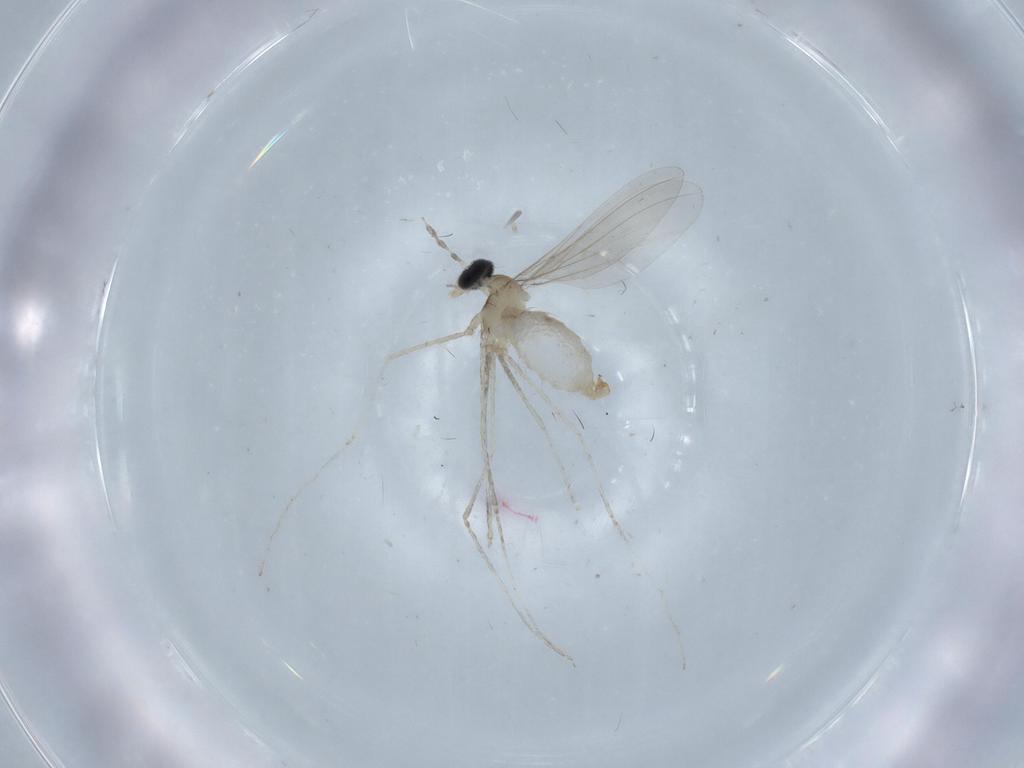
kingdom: Animalia
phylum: Arthropoda
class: Insecta
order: Diptera
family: Cecidomyiidae
